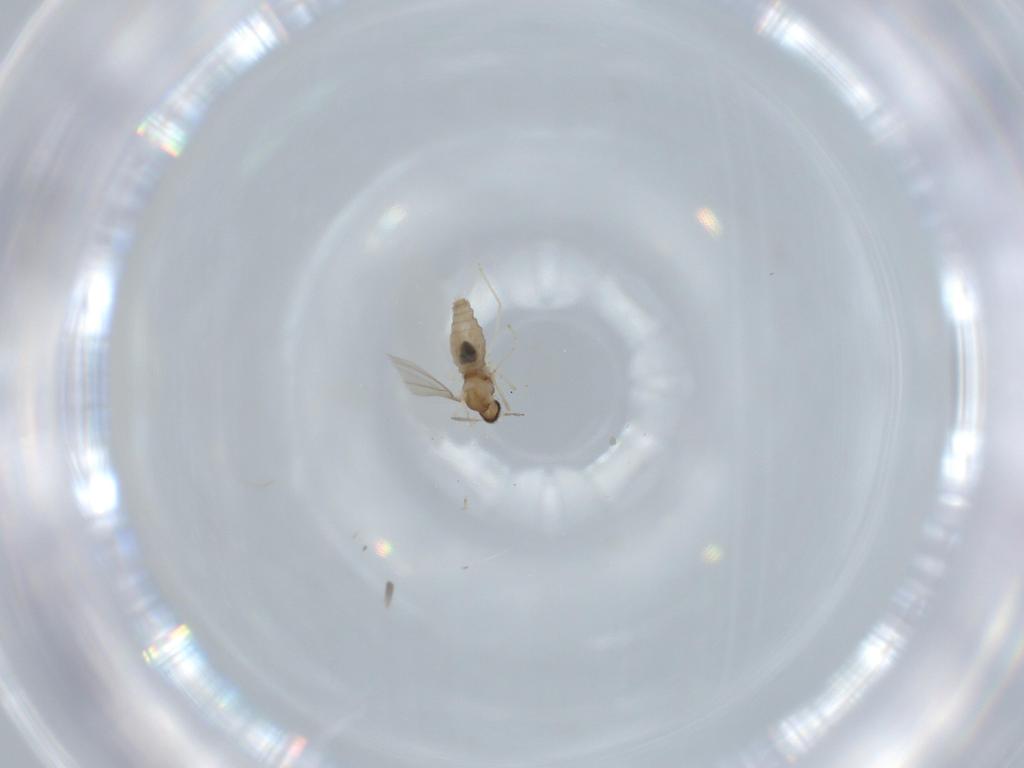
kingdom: Animalia
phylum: Arthropoda
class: Insecta
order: Diptera
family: Cecidomyiidae
